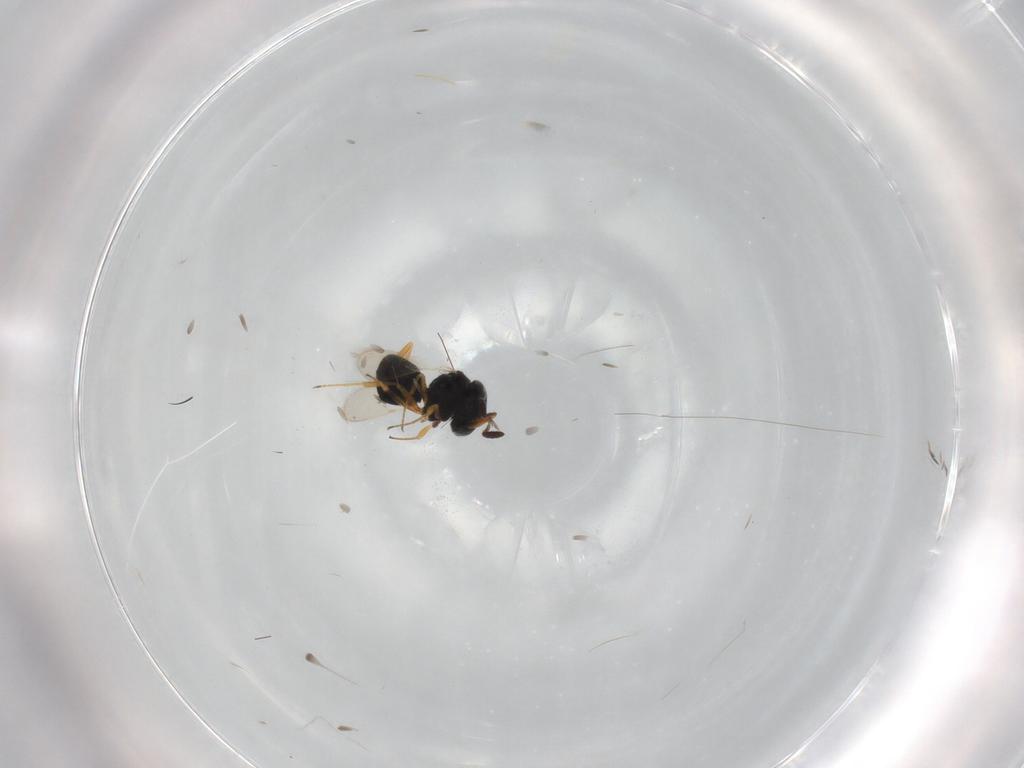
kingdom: Animalia
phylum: Arthropoda
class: Insecta
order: Hymenoptera
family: Scelionidae
